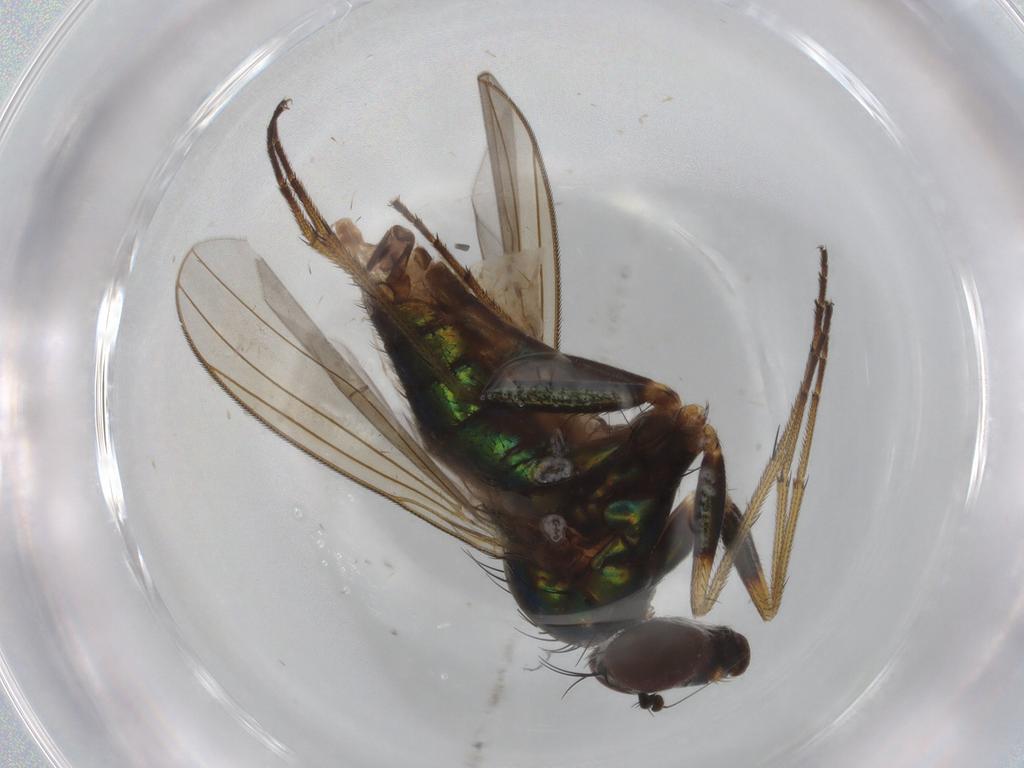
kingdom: Animalia
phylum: Arthropoda
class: Insecta
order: Diptera
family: Dolichopodidae
